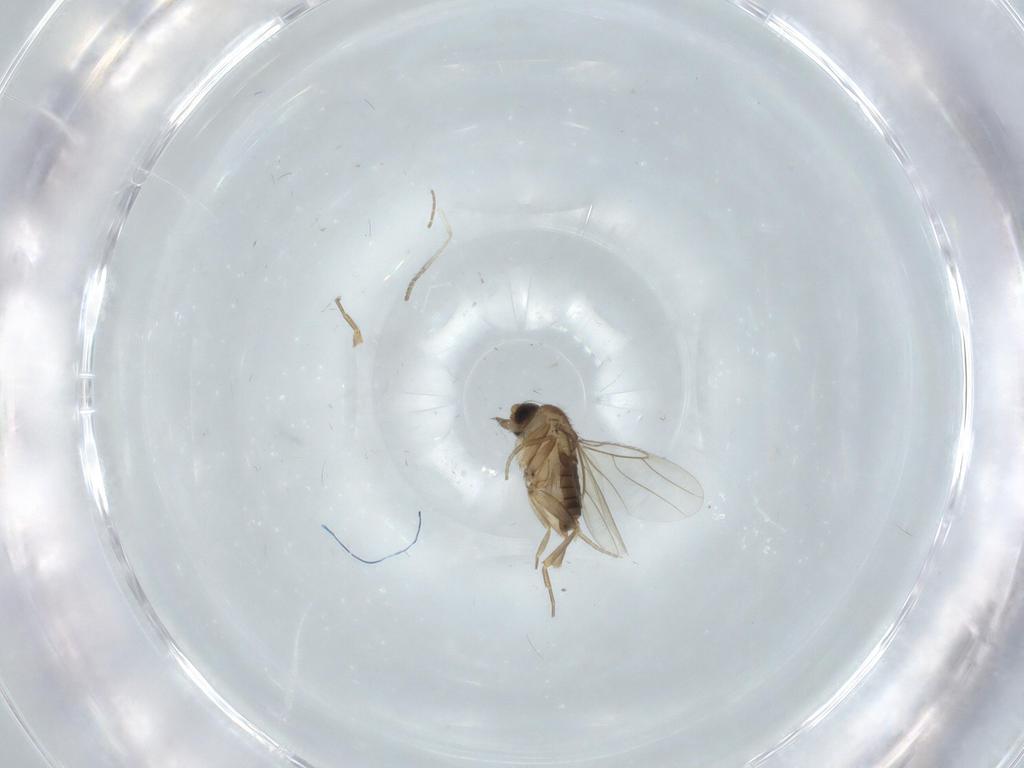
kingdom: Animalia
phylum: Arthropoda
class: Insecta
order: Diptera
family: Phoridae
